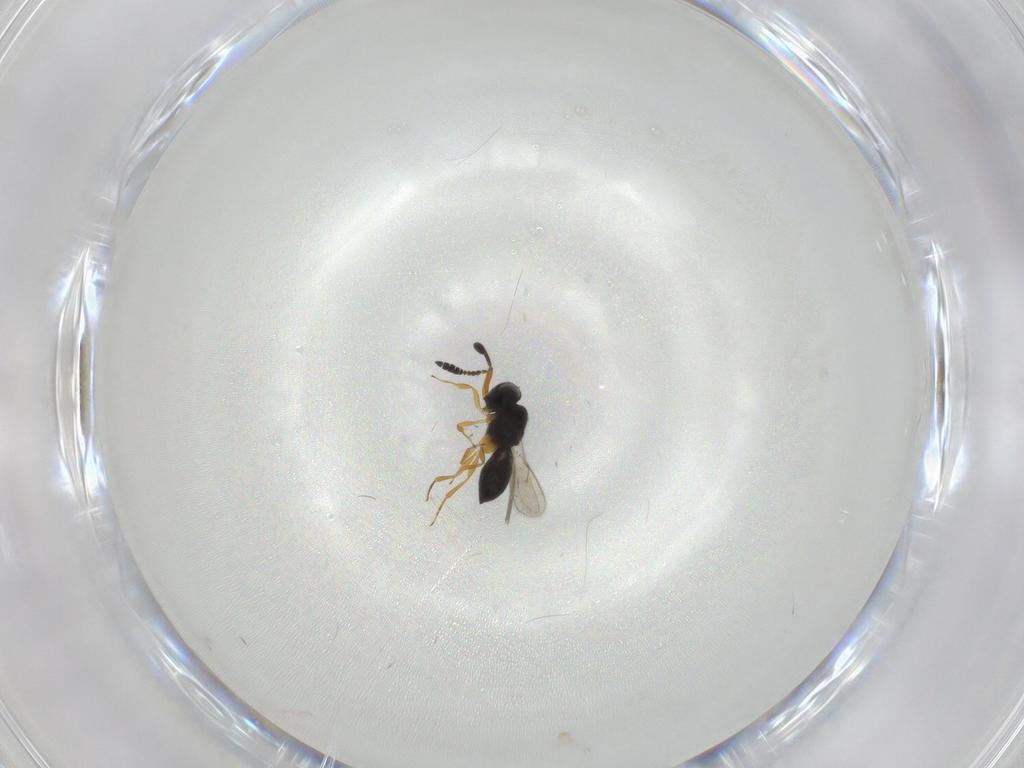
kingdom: Animalia
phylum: Arthropoda
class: Insecta
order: Hymenoptera
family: Scelionidae
